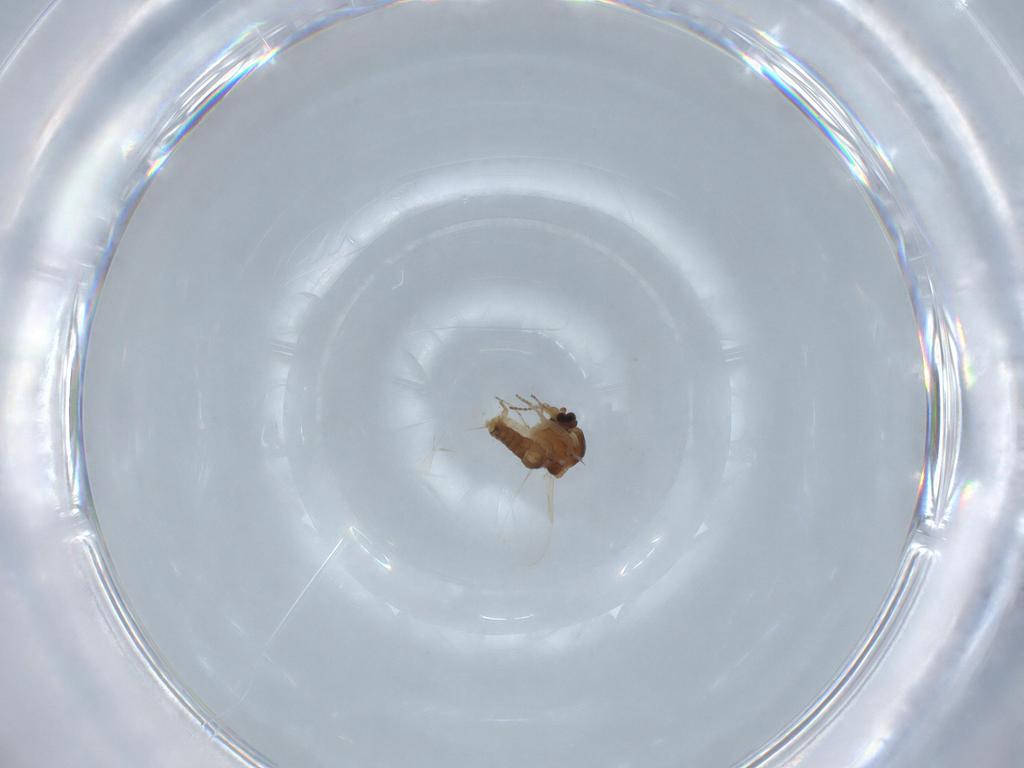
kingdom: Animalia
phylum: Arthropoda
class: Insecta
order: Diptera
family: Ceratopogonidae
